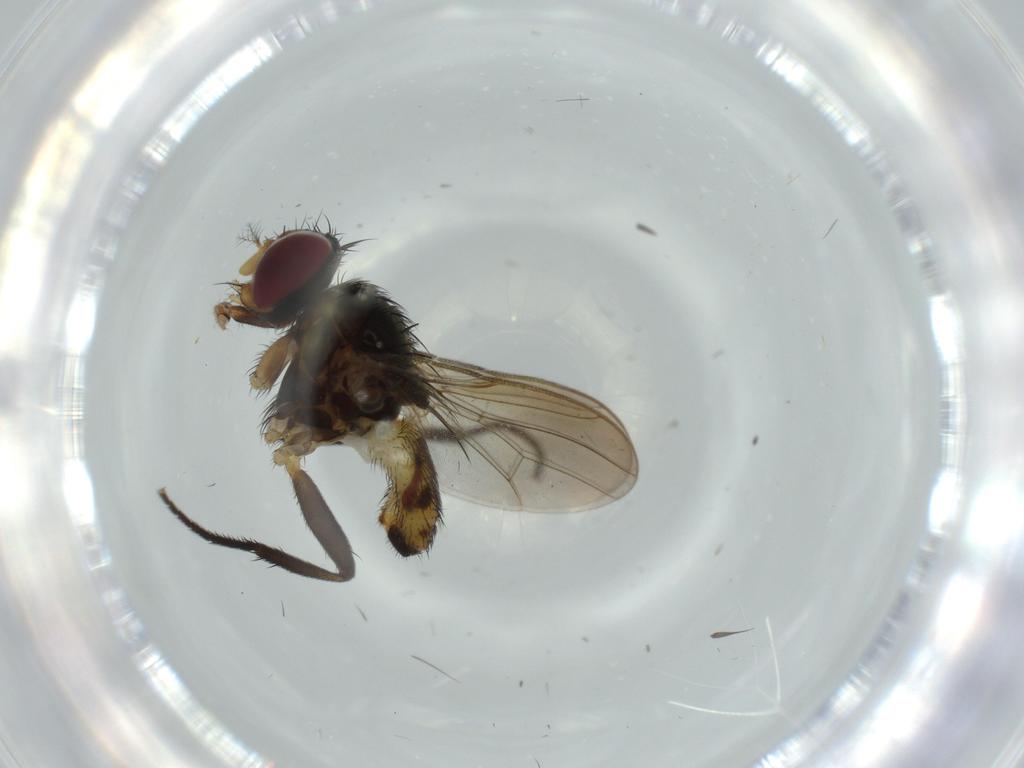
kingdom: Animalia
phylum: Arthropoda
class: Insecta
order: Diptera
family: Anthomyiidae
